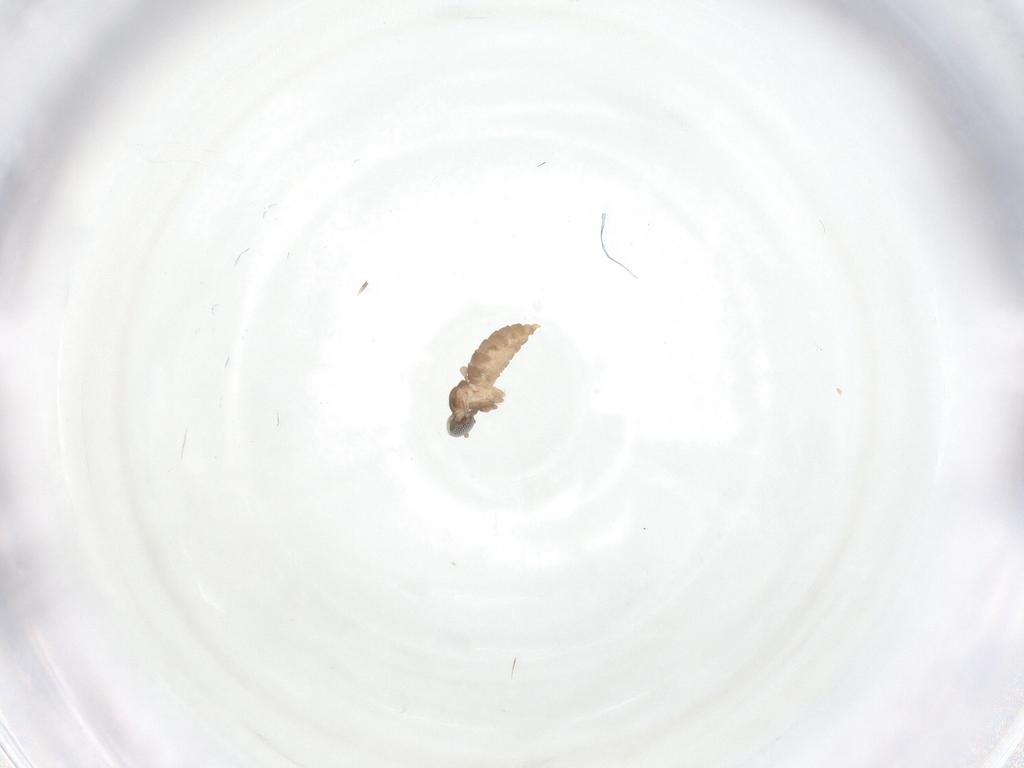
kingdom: Animalia
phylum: Arthropoda
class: Insecta
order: Diptera
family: Cecidomyiidae
